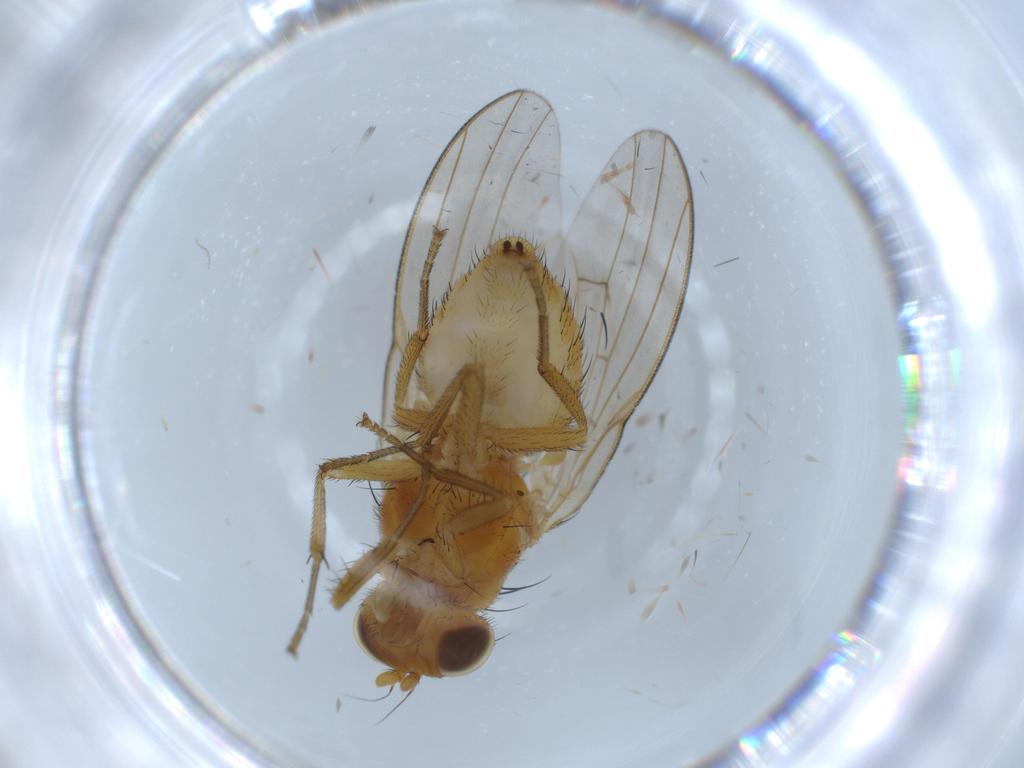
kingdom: Animalia
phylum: Arthropoda
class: Insecta
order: Diptera
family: Lauxaniidae
